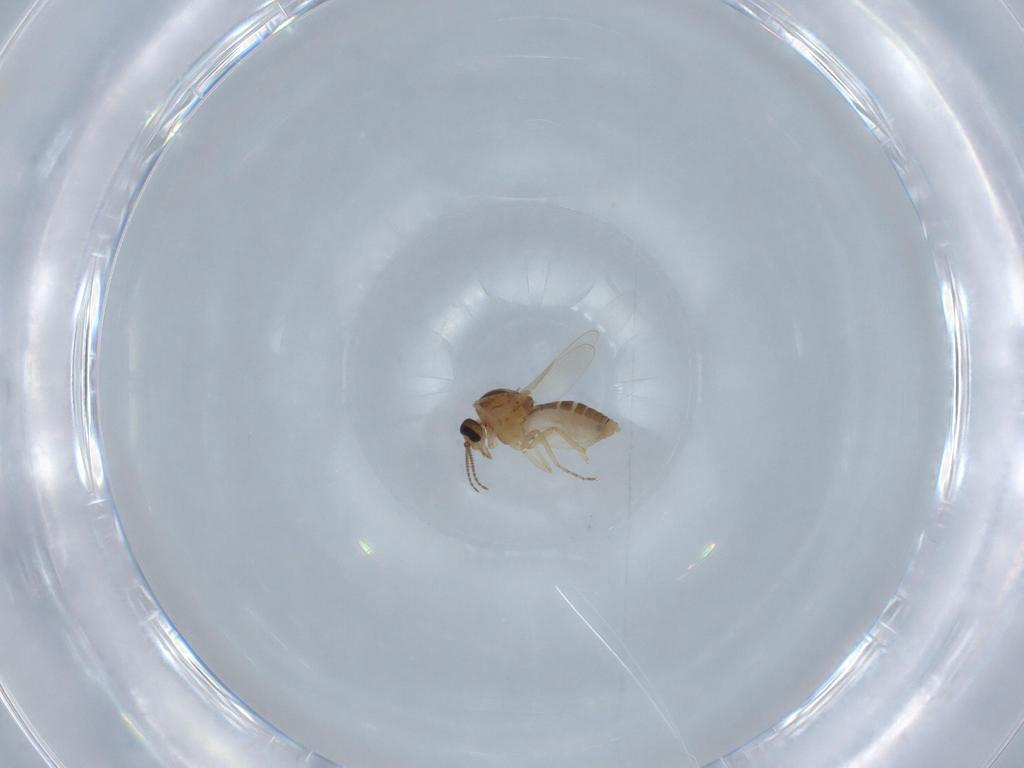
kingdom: Animalia
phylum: Arthropoda
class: Insecta
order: Diptera
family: Ceratopogonidae
